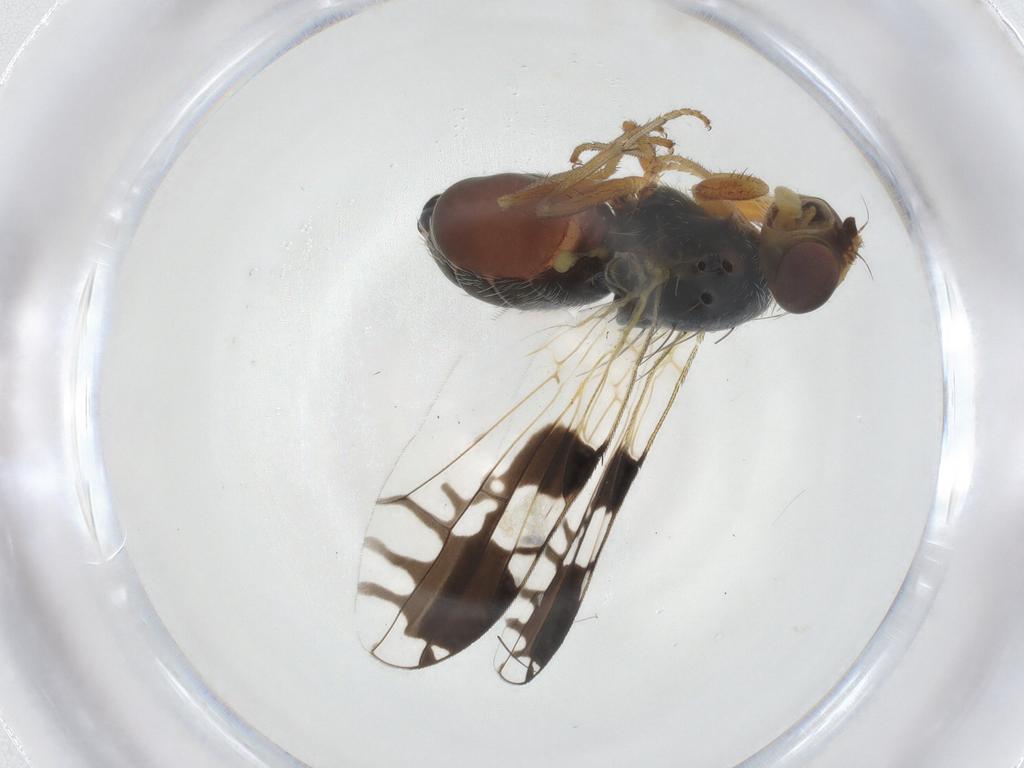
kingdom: Animalia
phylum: Arthropoda
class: Insecta
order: Diptera
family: Tephritidae
